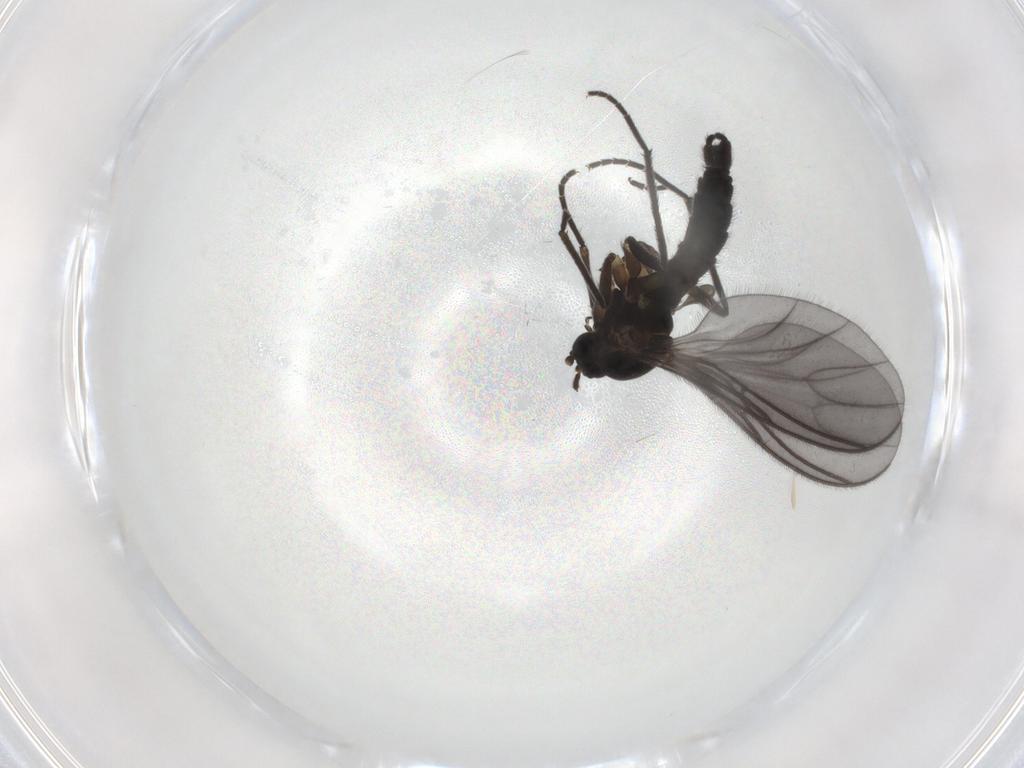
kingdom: Animalia
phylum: Arthropoda
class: Insecta
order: Diptera
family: Sciaridae
